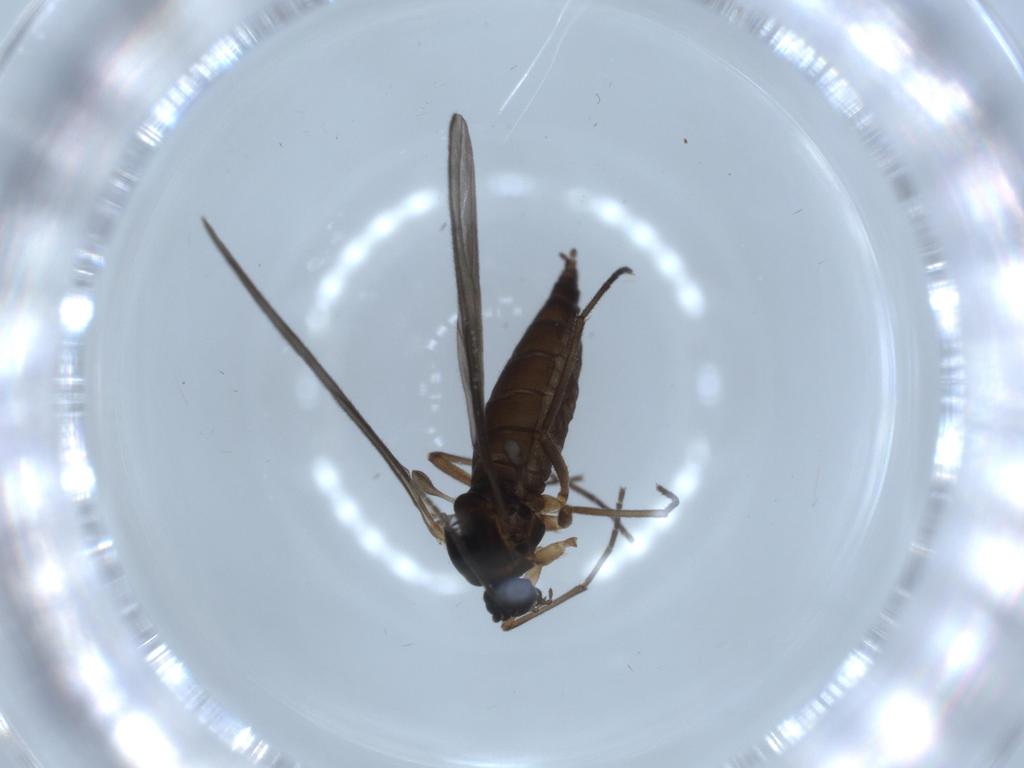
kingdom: Animalia
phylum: Arthropoda
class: Insecta
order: Diptera
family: Sciaridae
